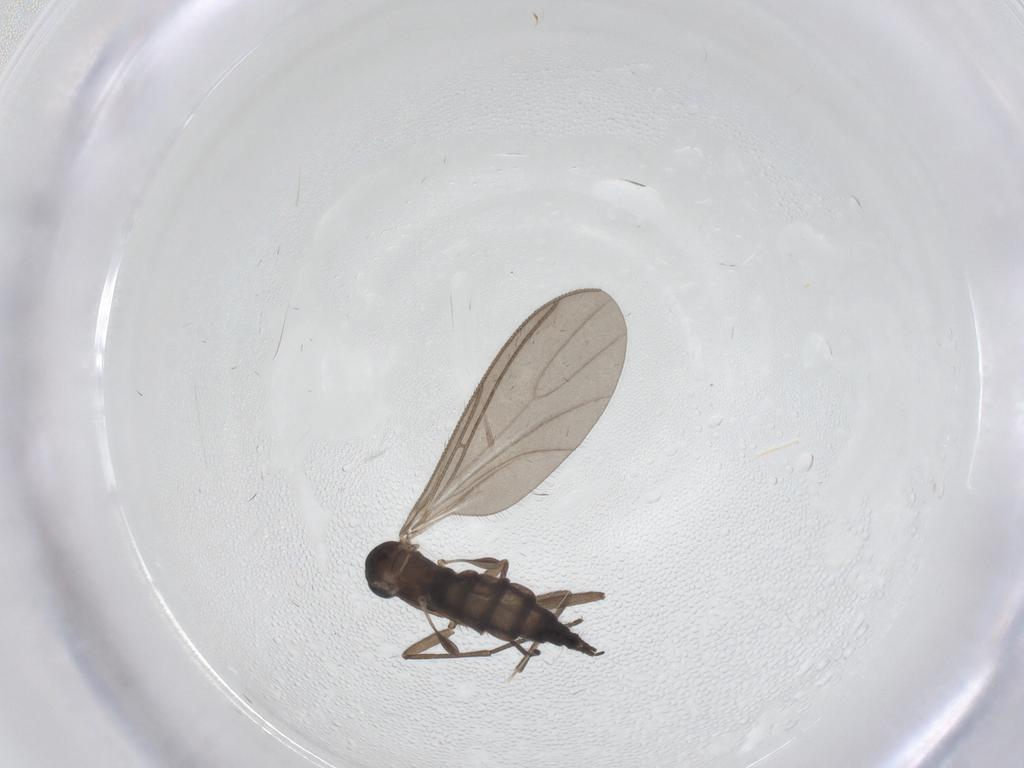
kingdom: Animalia
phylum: Arthropoda
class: Insecta
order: Diptera
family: Sciaridae
